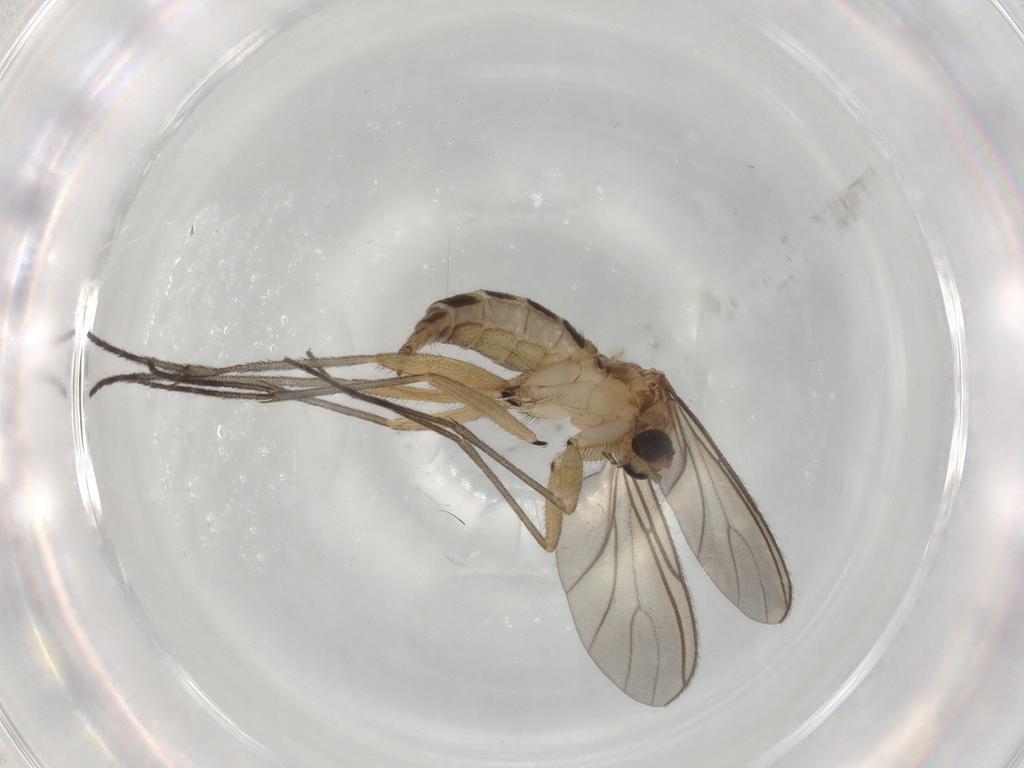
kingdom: Animalia
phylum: Arthropoda
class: Insecta
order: Diptera
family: Sciaridae
